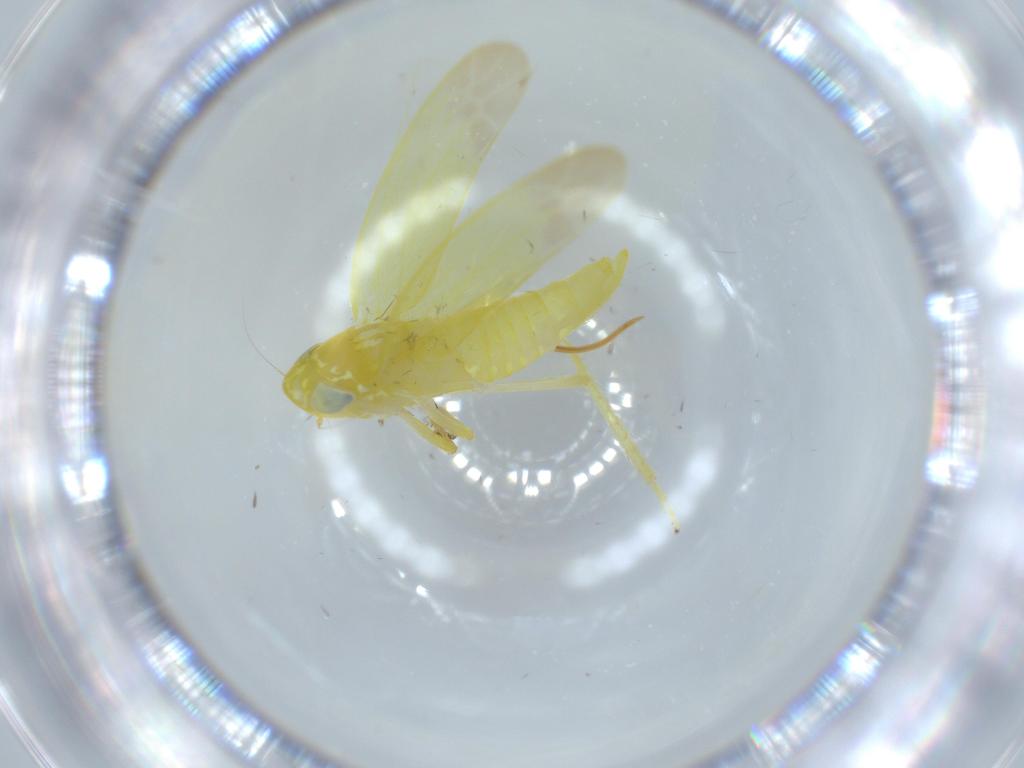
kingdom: Animalia
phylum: Arthropoda
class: Insecta
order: Hemiptera
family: Cicadellidae
